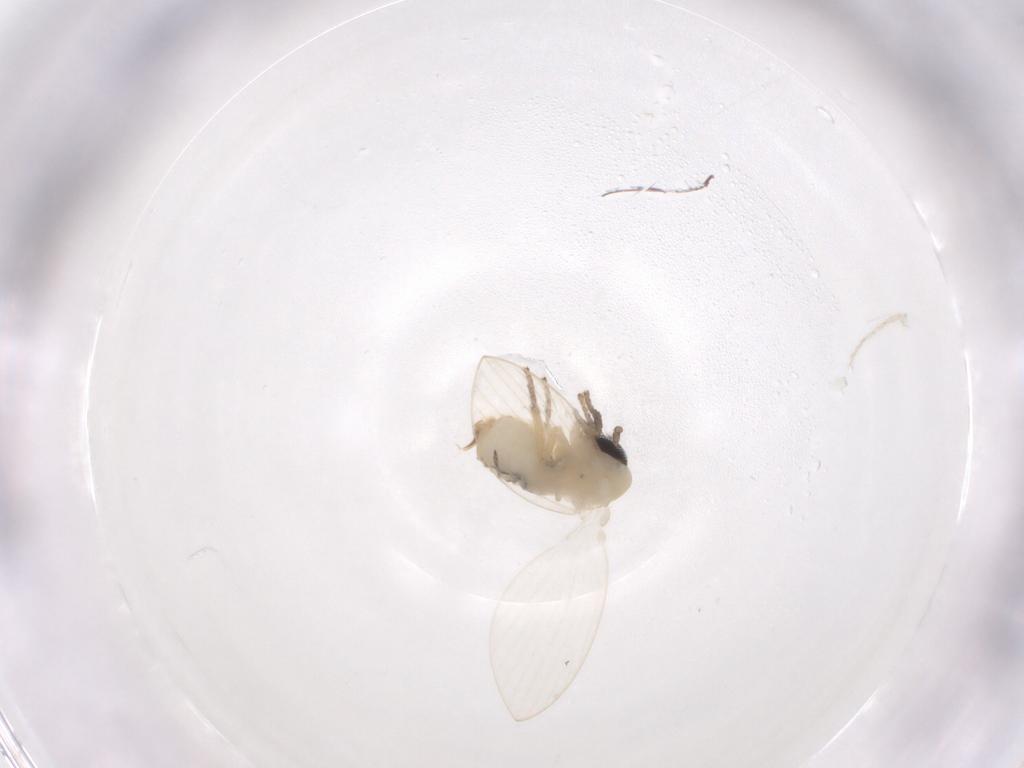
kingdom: Animalia
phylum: Arthropoda
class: Insecta
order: Diptera
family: Psychodidae
